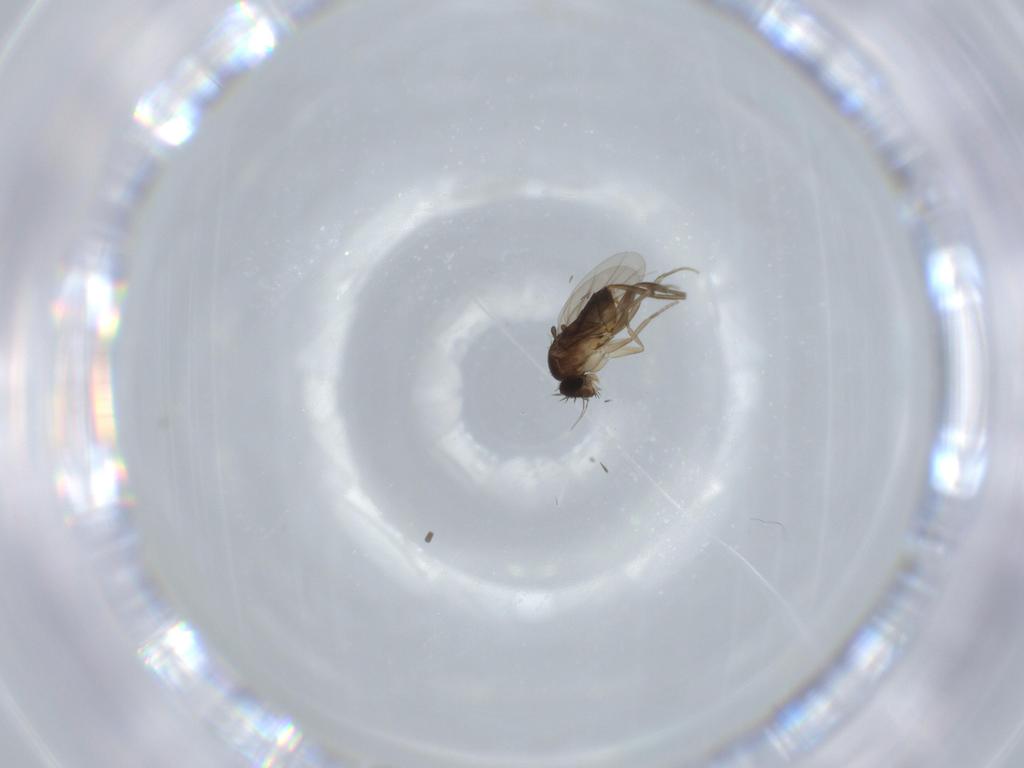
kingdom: Animalia
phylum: Arthropoda
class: Insecta
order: Diptera
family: Phoridae
